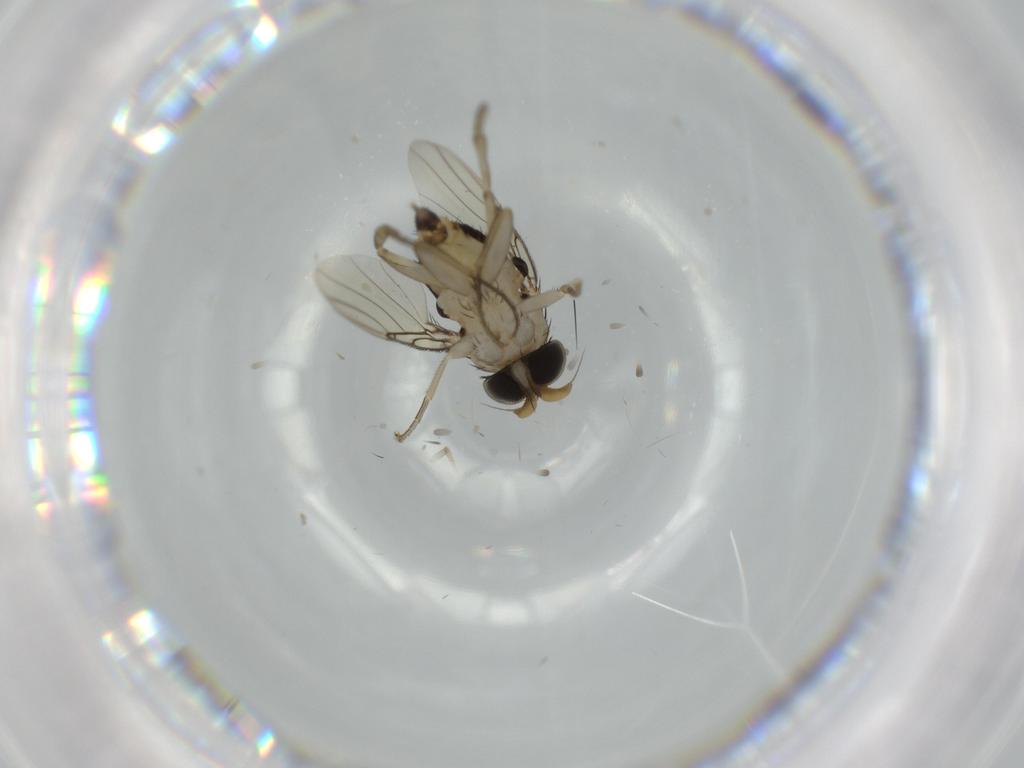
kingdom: Animalia
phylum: Arthropoda
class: Insecta
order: Diptera
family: Phoridae
